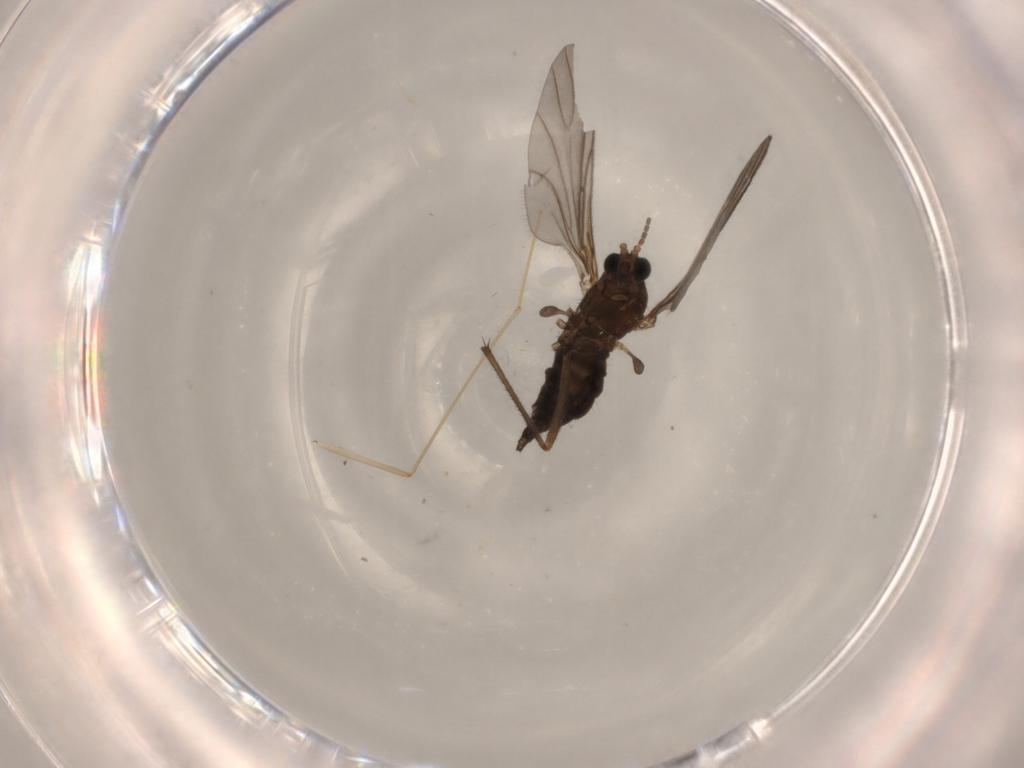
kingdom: Animalia
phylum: Arthropoda
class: Insecta
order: Diptera
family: Sciaridae
